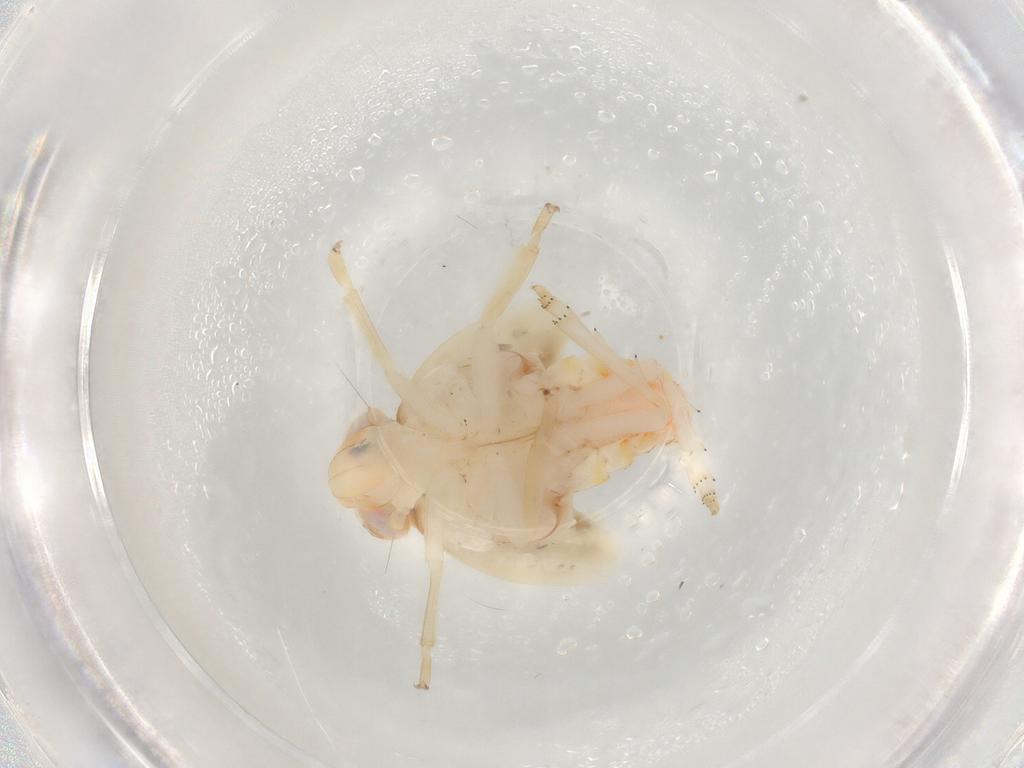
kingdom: Animalia
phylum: Arthropoda
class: Insecta
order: Hemiptera
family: Nogodinidae
